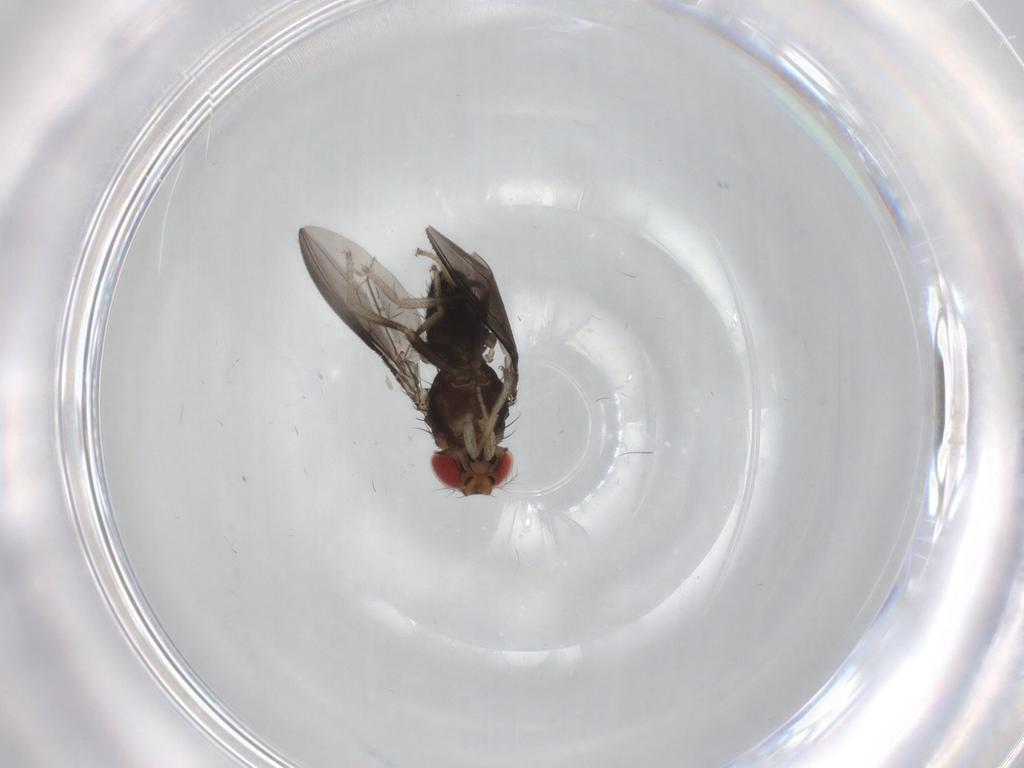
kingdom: Animalia
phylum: Arthropoda
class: Insecta
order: Diptera
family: Drosophilidae
